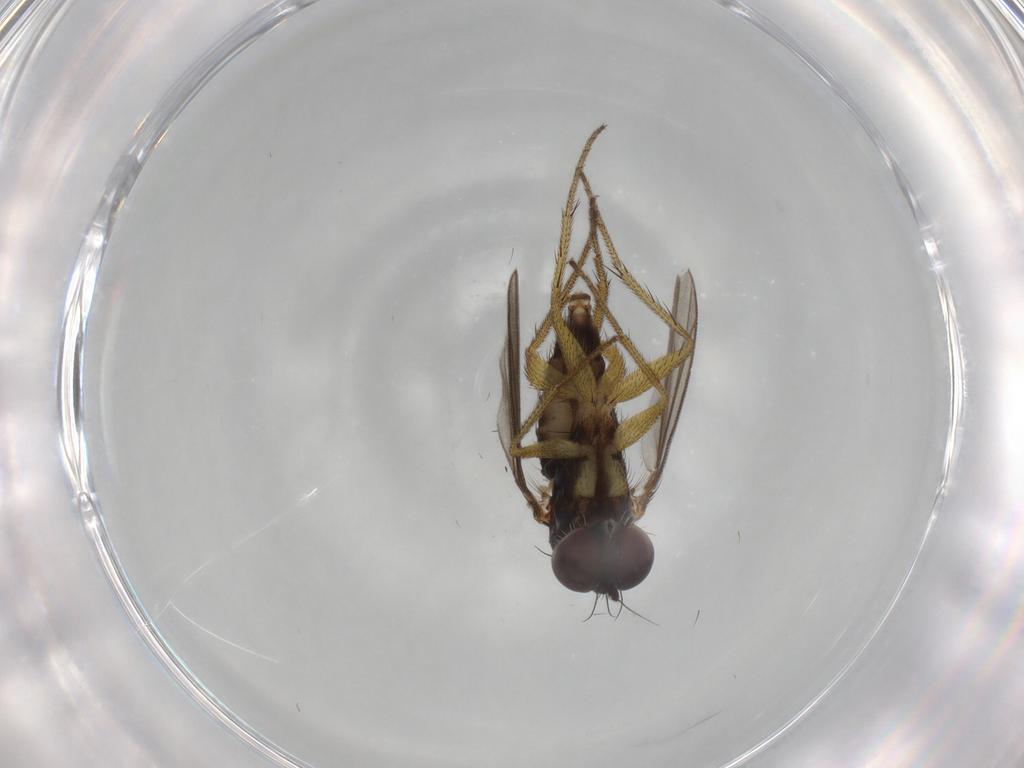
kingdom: Animalia
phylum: Arthropoda
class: Insecta
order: Diptera
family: Dolichopodidae
